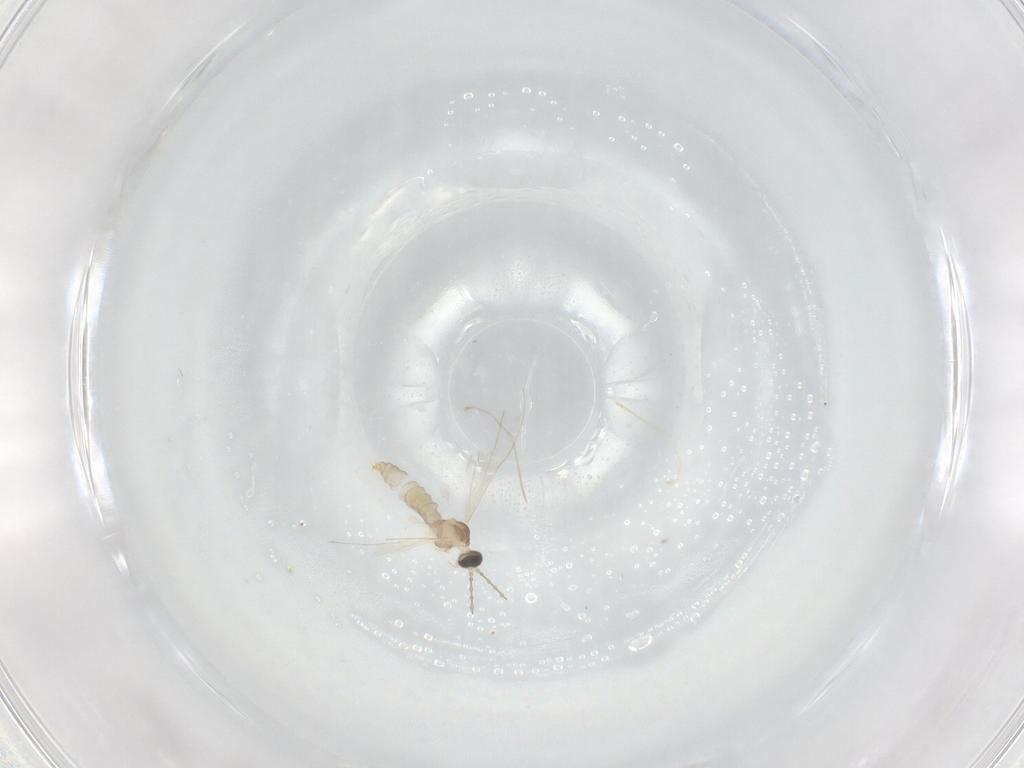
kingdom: Animalia
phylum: Arthropoda
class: Insecta
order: Diptera
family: Cecidomyiidae
